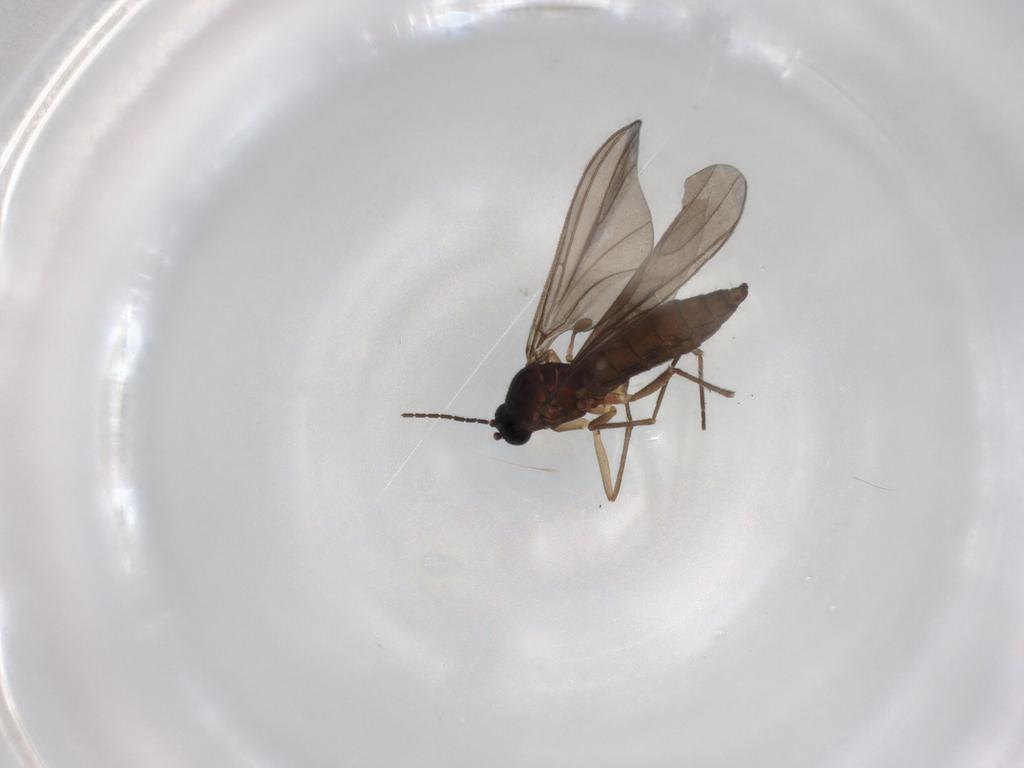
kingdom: Animalia
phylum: Arthropoda
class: Insecta
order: Diptera
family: Sciaridae
